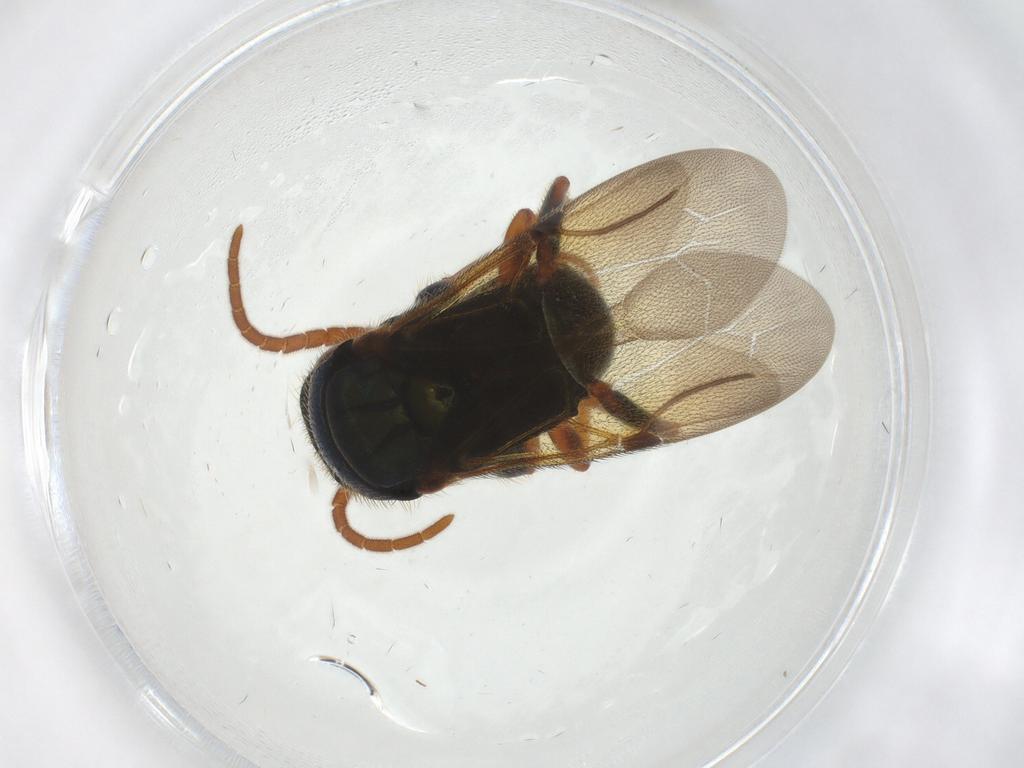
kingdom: Animalia
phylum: Arthropoda
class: Insecta
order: Hymenoptera
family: Bethylidae
